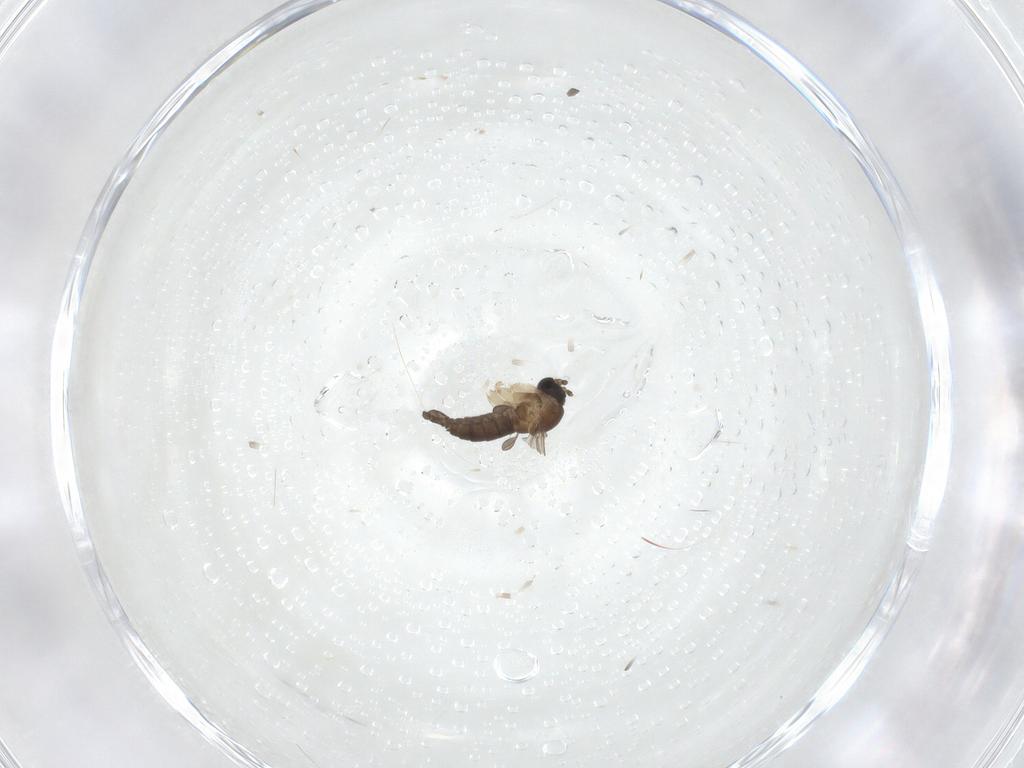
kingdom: Animalia
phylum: Arthropoda
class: Insecta
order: Diptera
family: Sciaridae
